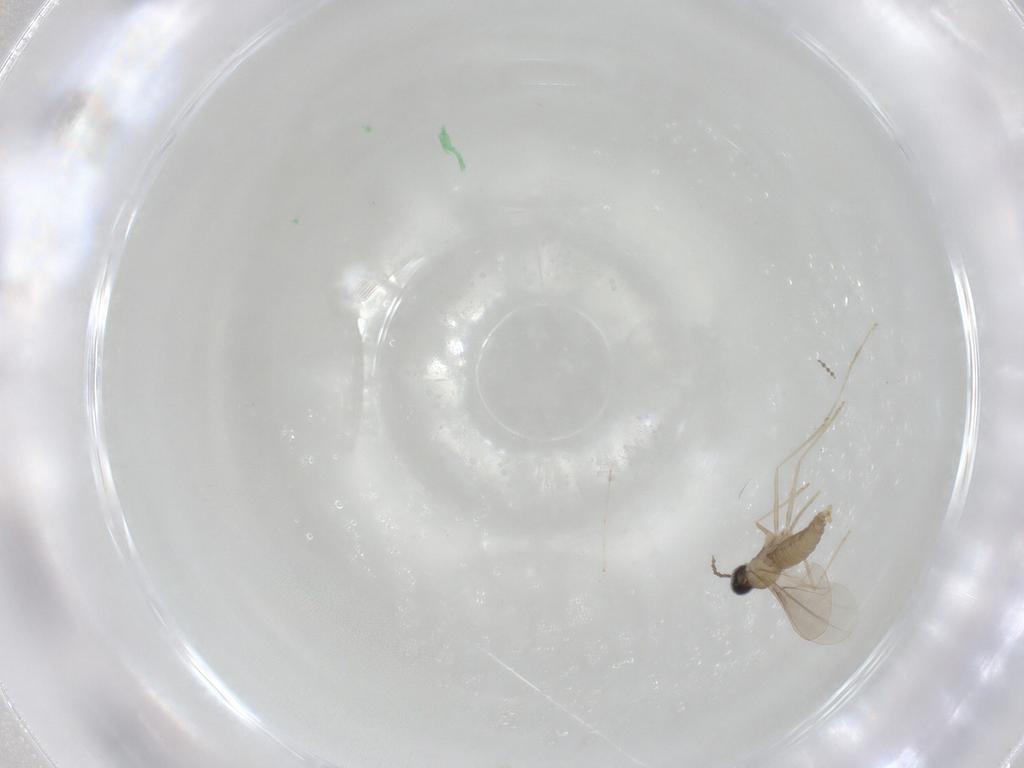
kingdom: Animalia
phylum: Arthropoda
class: Insecta
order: Diptera
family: Cecidomyiidae
